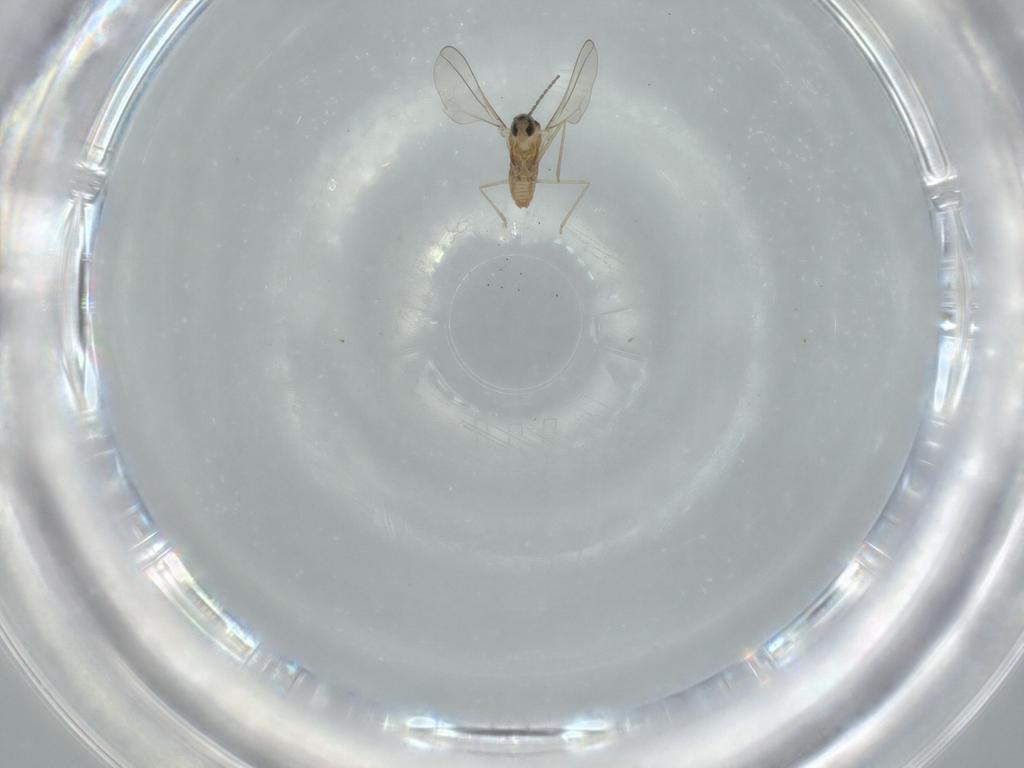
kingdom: Animalia
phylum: Arthropoda
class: Insecta
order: Diptera
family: Cecidomyiidae
